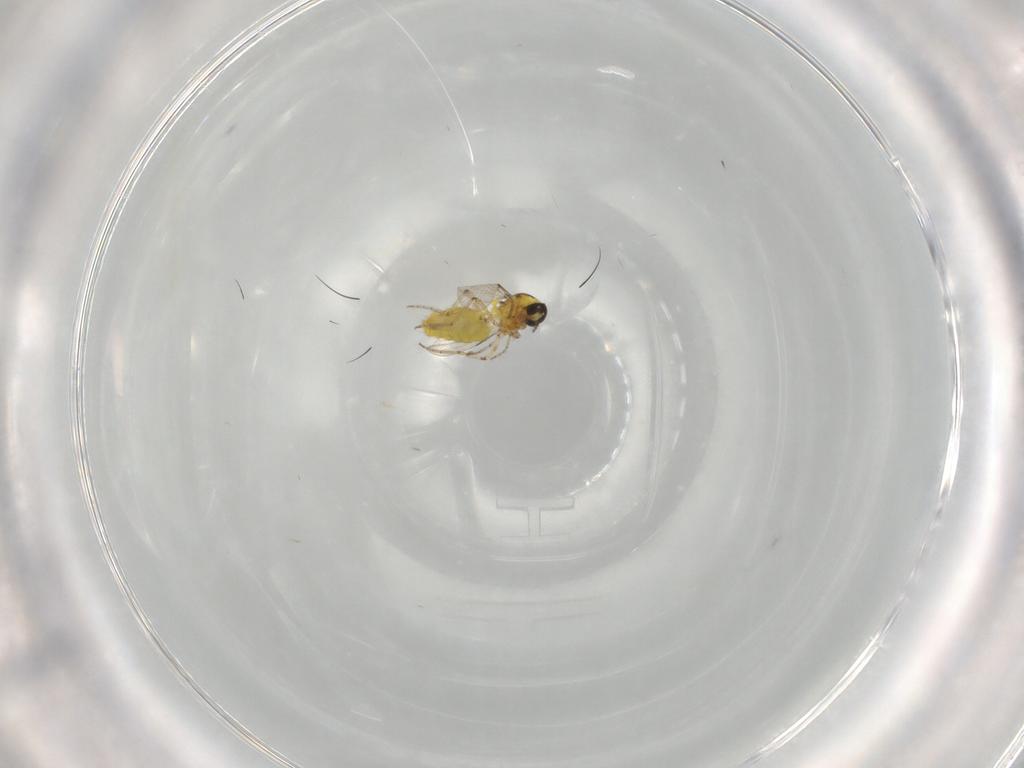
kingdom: Animalia
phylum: Arthropoda
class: Insecta
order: Diptera
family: Ceratopogonidae
